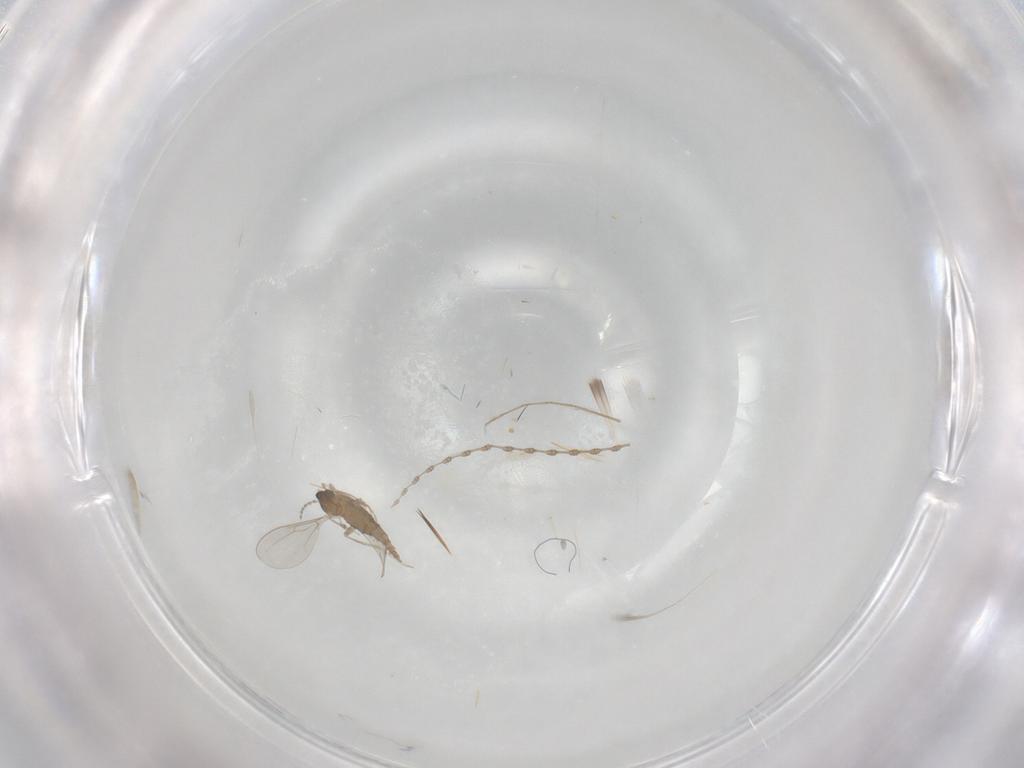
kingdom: Animalia
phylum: Arthropoda
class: Insecta
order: Diptera
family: Cecidomyiidae
